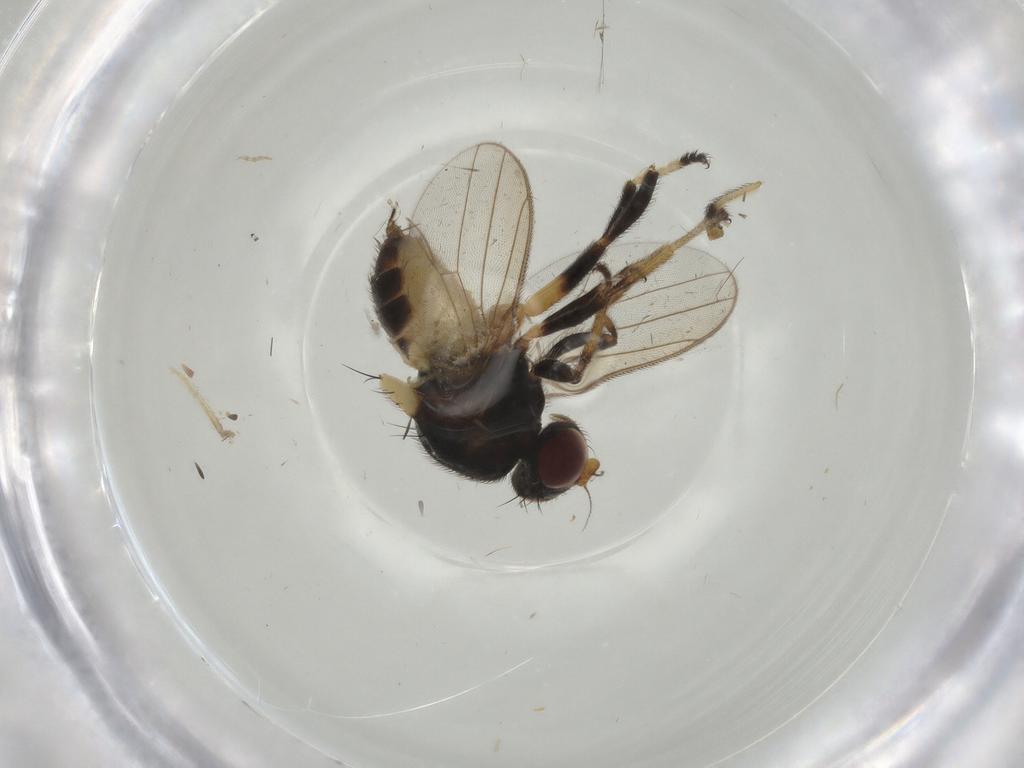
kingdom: Animalia
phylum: Arthropoda
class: Insecta
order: Diptera
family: Chloropidae
